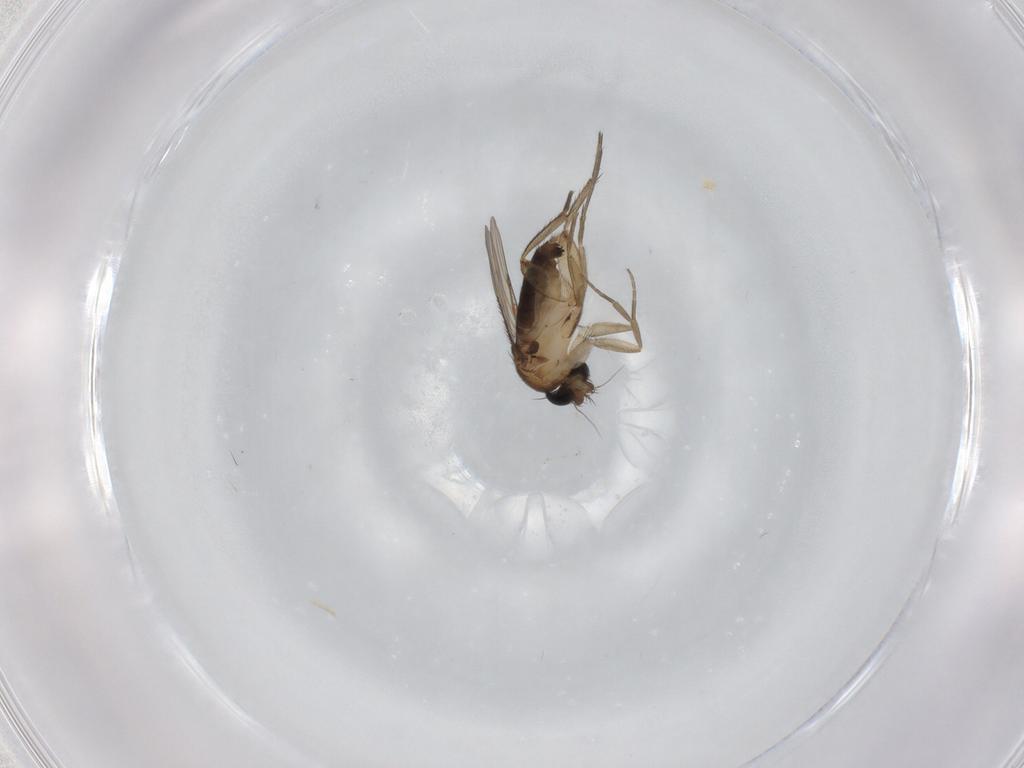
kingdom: Animalia
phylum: Arthropoda
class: Insecta
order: Diptera
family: Phoridae
